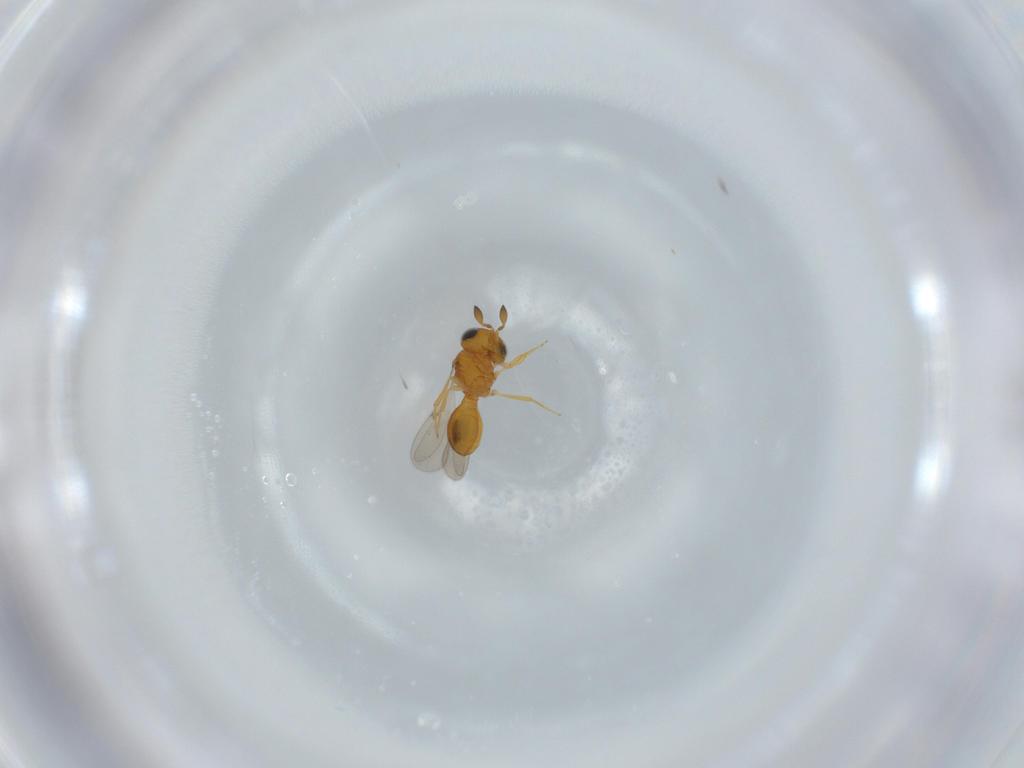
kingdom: Animalia
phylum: Arthropoda
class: Insecta
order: Hymenoptera
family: Scelionidae
